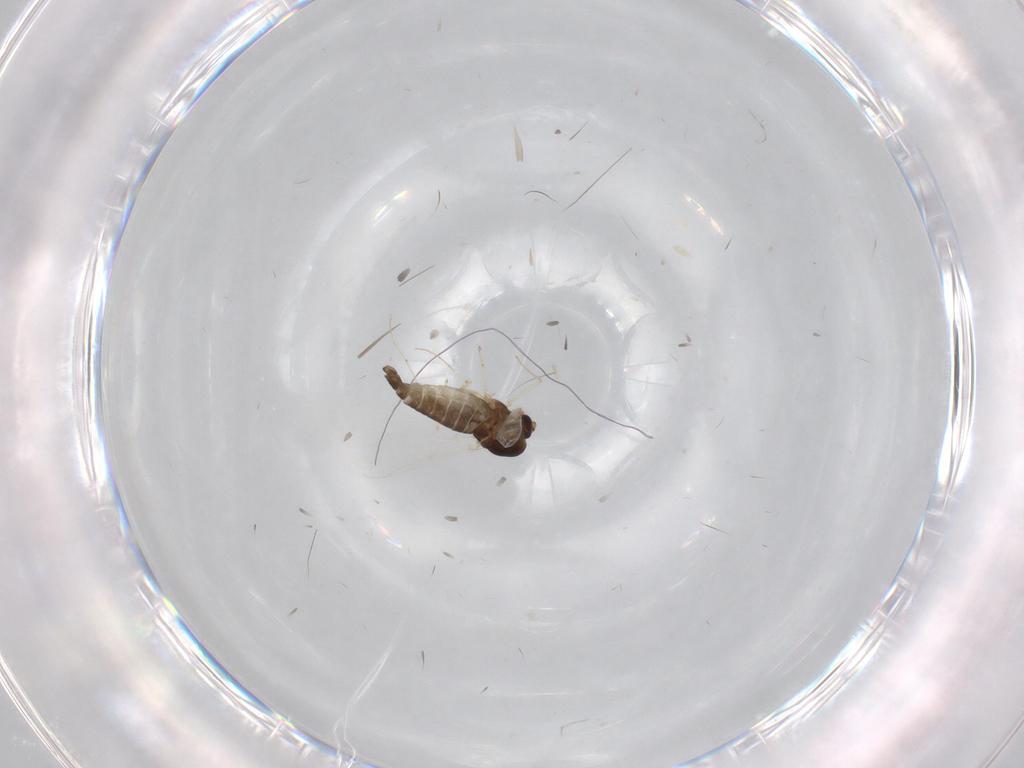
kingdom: Animalia
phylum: Arthropoda
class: Insecta
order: Diptera
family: Chironomidae
